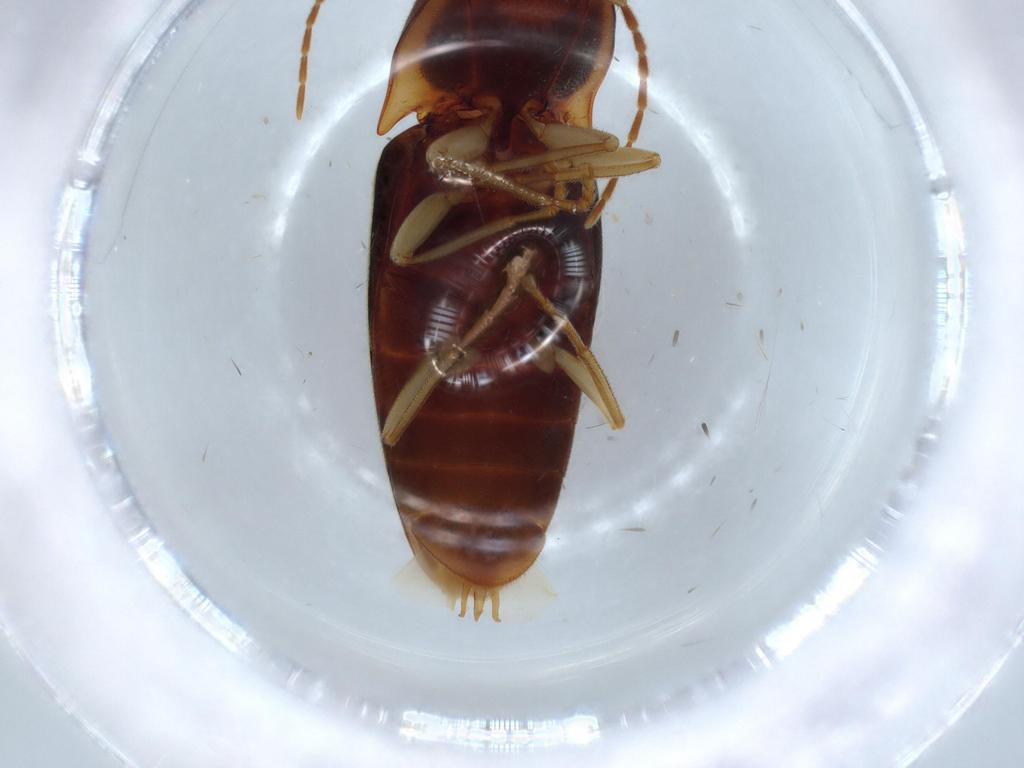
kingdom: Animalia
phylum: Arthropoda
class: Insecta
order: Coleoptera
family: Elateridae
